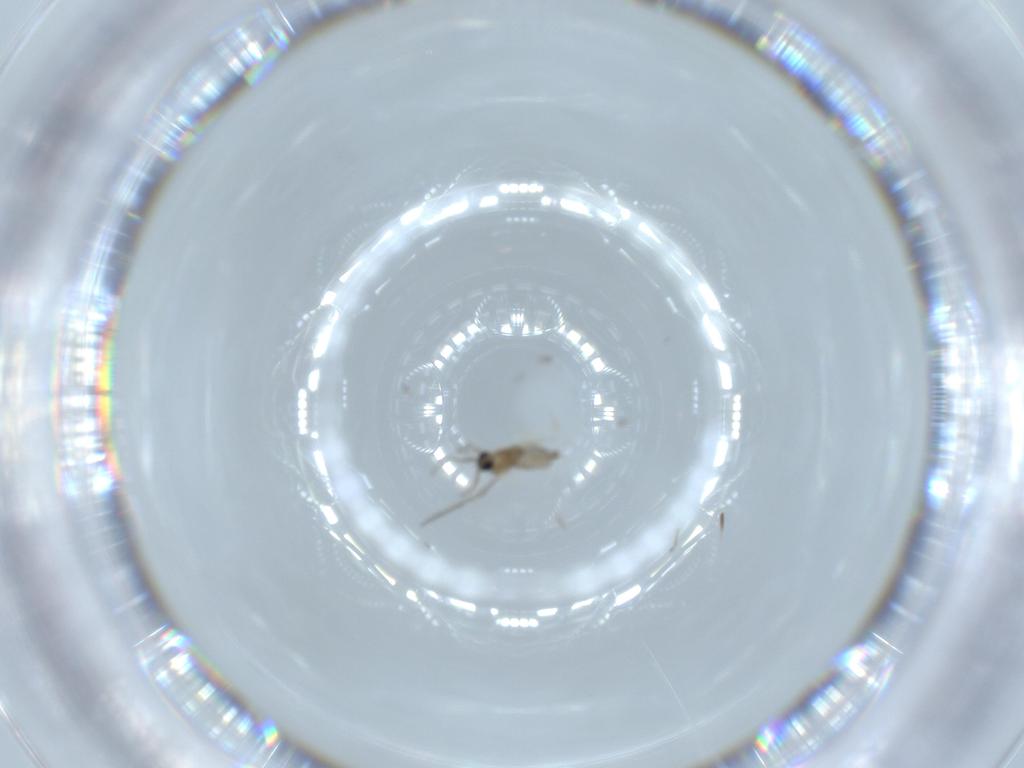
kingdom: Animalia
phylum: Arthropoda
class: Insecta
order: Diptera
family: Cecidomyiidae
